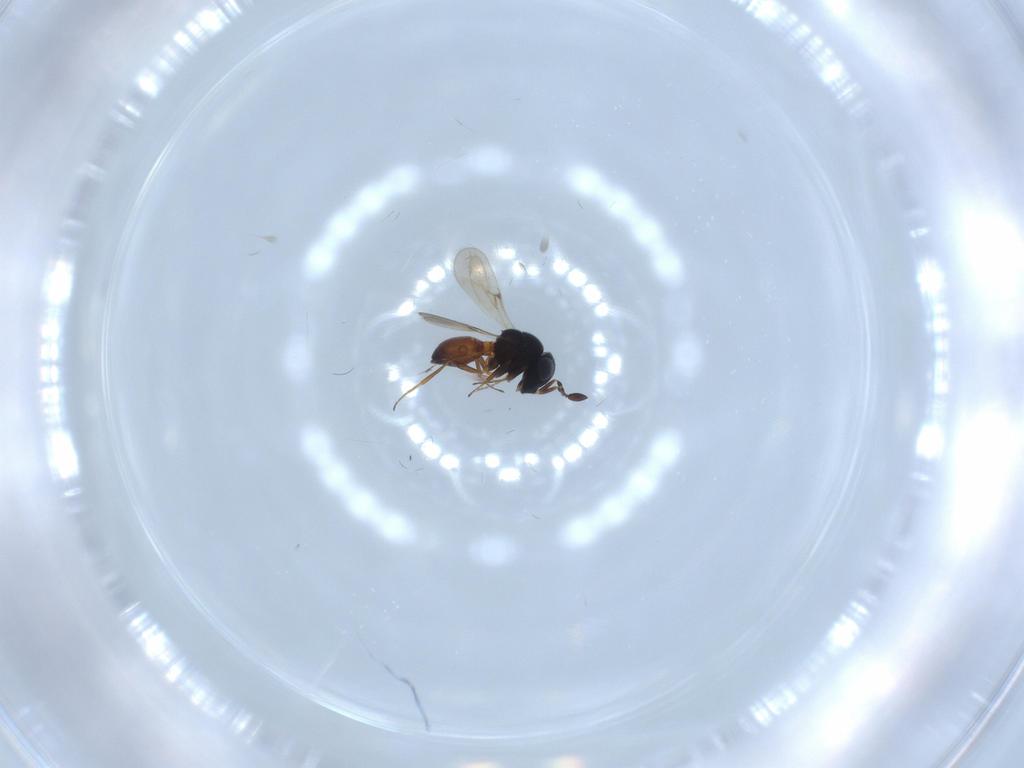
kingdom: Animalia
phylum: Arthropoda
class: Insecta
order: Hymenoptera
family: Scelionidae
